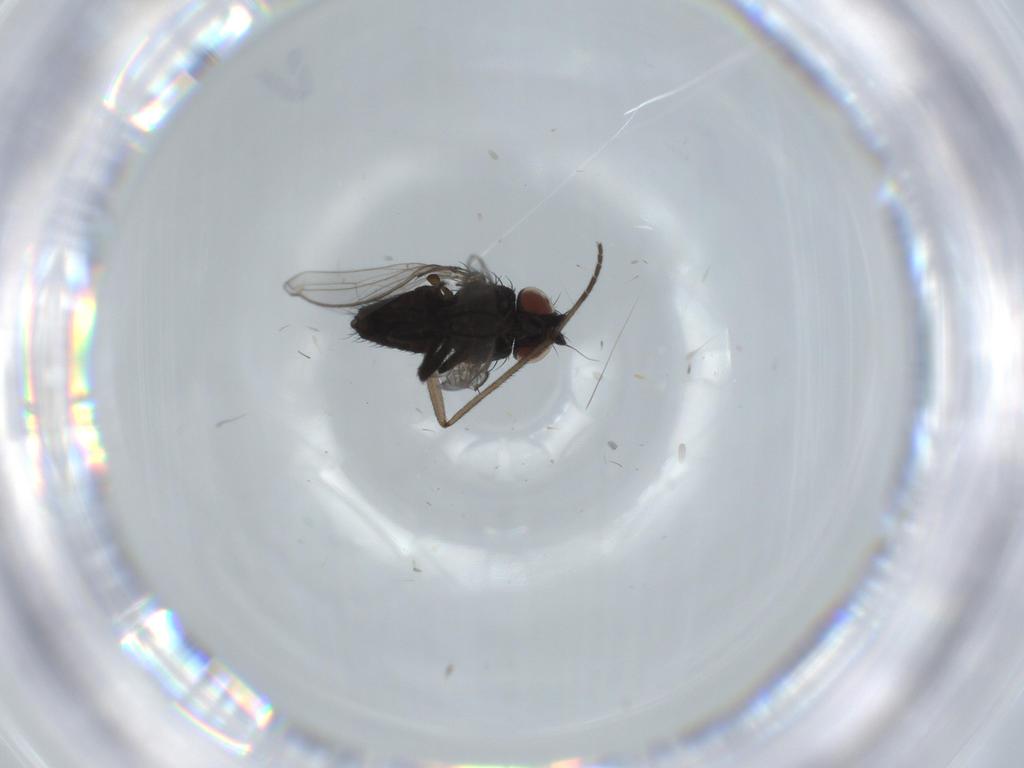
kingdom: Animalia
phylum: Arthropoda
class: Insecta
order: Diptera
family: Milichiidae
